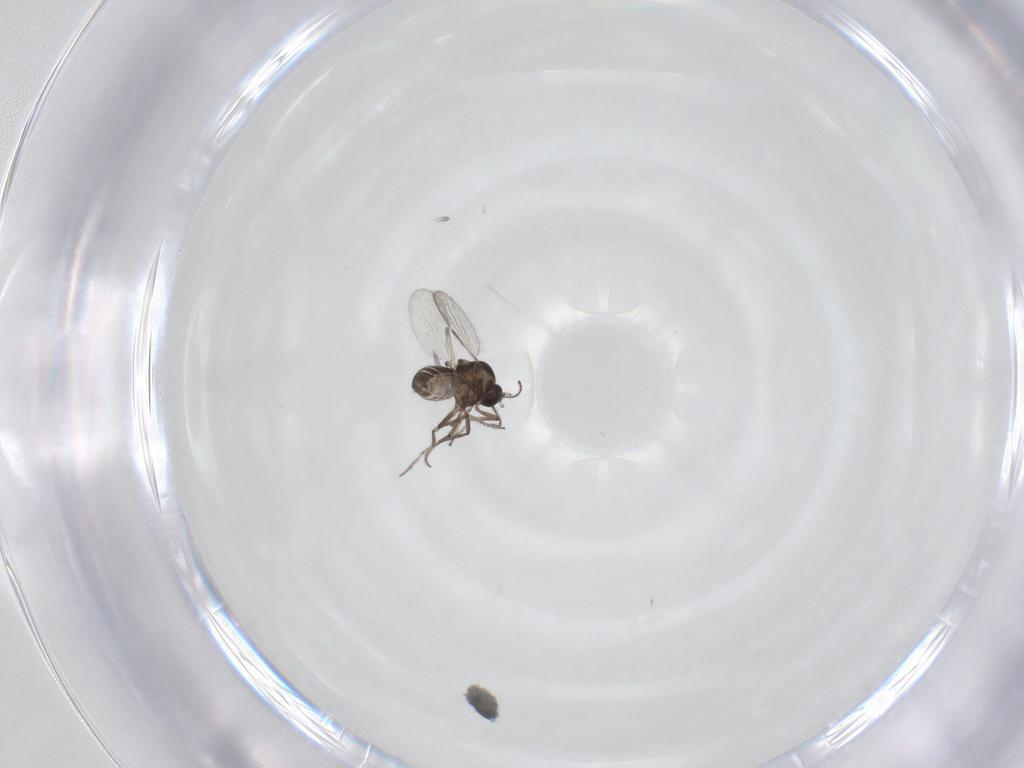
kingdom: Animalia
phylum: Arthropoda
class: Insecta
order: Diptera
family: Ceratopogonidae
